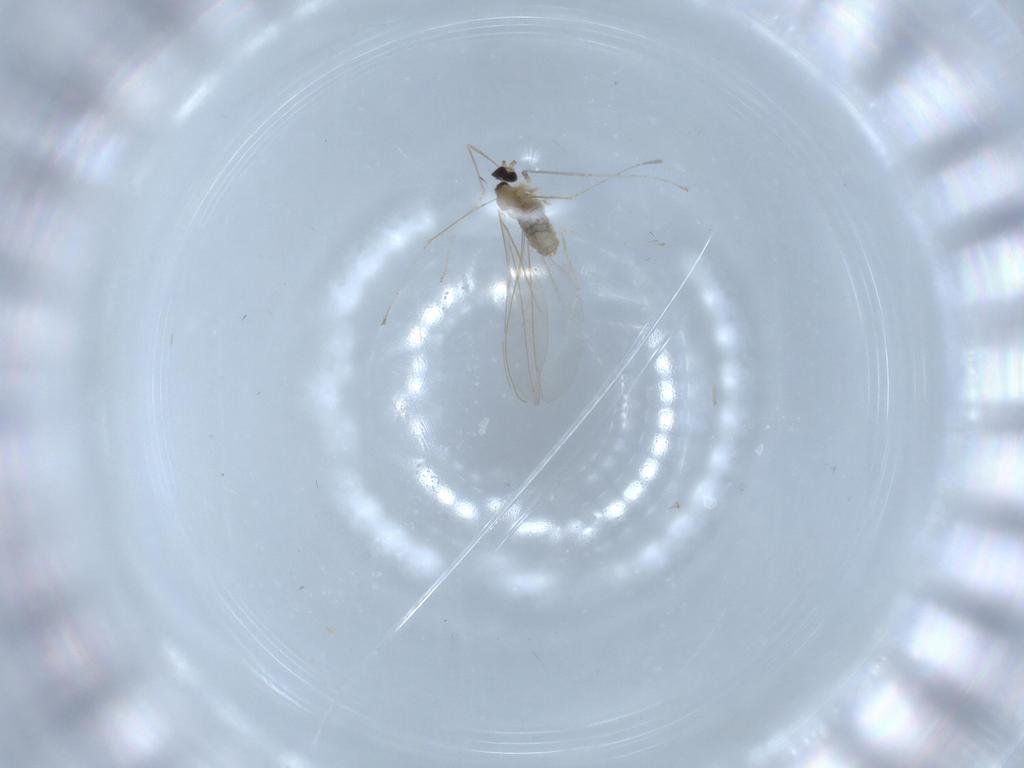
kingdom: Animalia
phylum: Arthropoda
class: Insecta
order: Diptera
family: Cecidomyiidae
